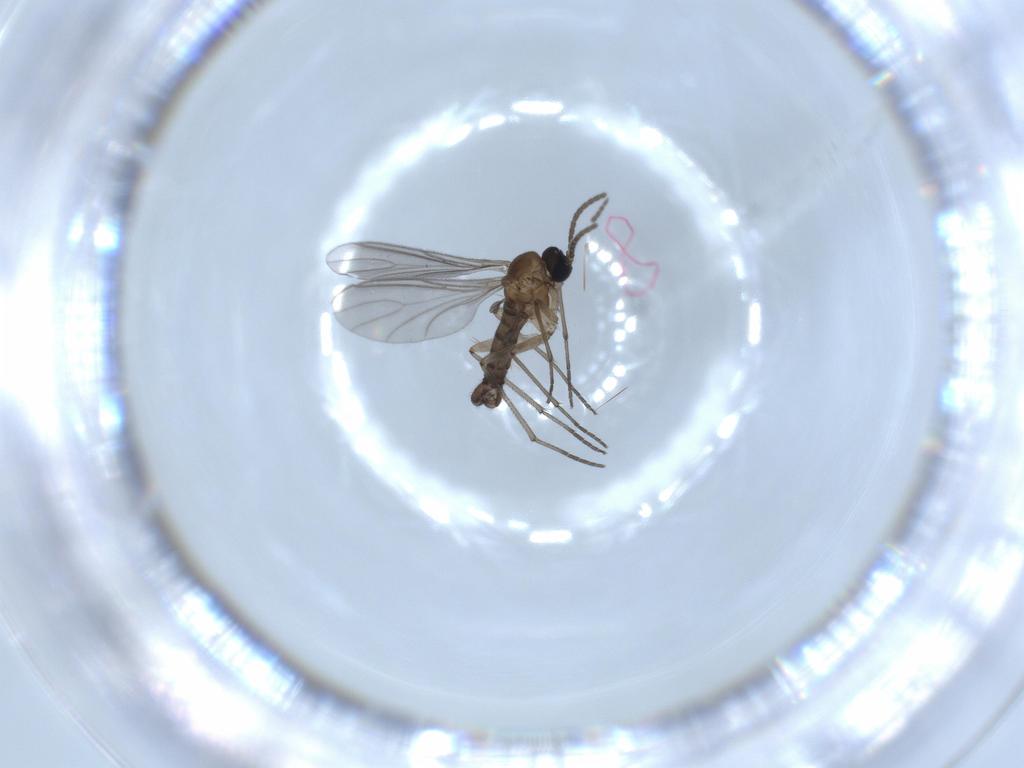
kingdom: Animalia
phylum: Arthropoda
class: Insecta
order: Diptera
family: Sciaridae
